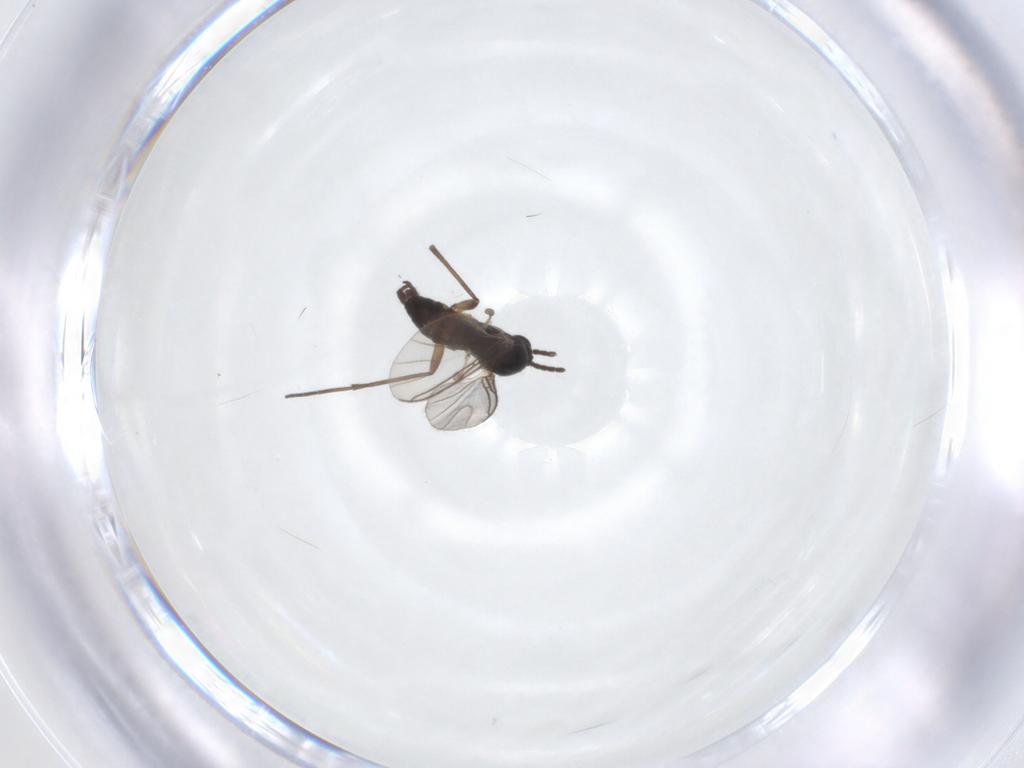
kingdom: Animalia
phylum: Arthropoda
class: Insecta
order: Diptera
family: Sciaridae
